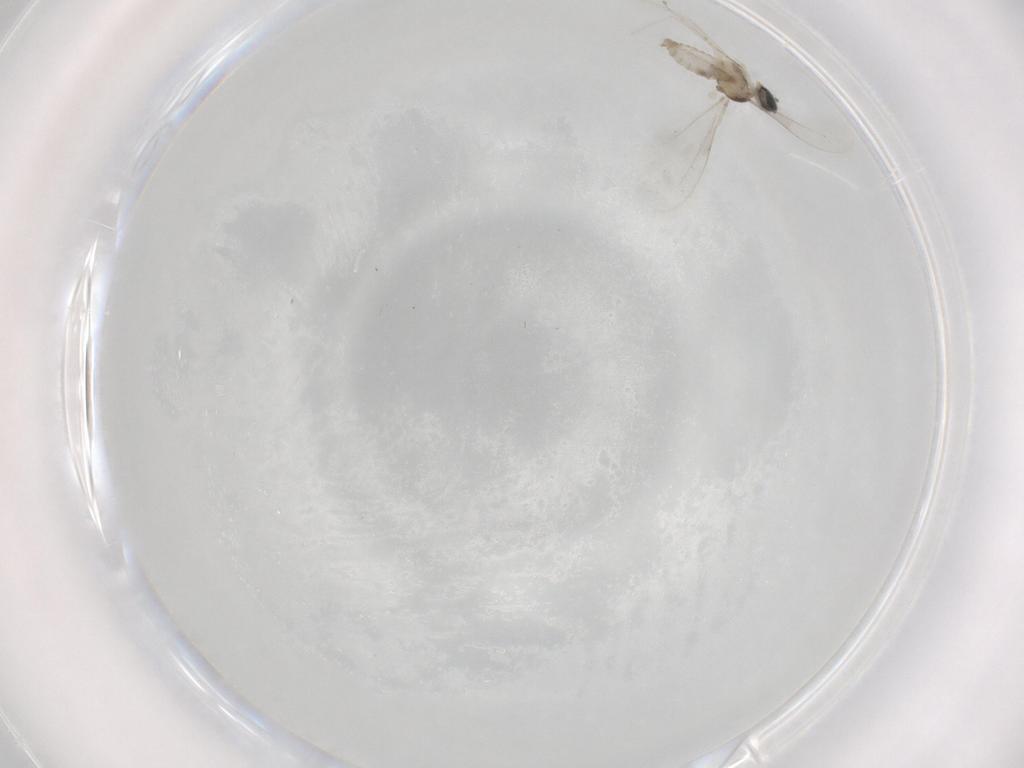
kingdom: Animalia
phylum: Arthropoda
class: Insecta
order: Diptera
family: Cecidomyiidae
